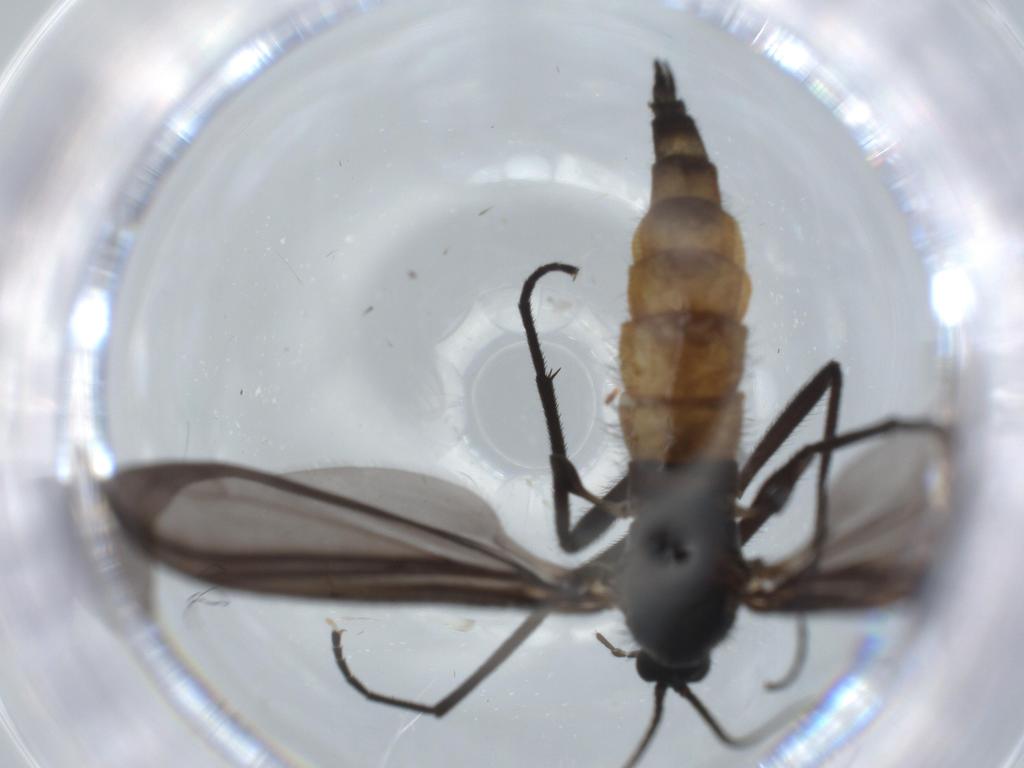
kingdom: Animalia
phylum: Arthropoda
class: Insecta
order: Diptera
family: Chironomidae
